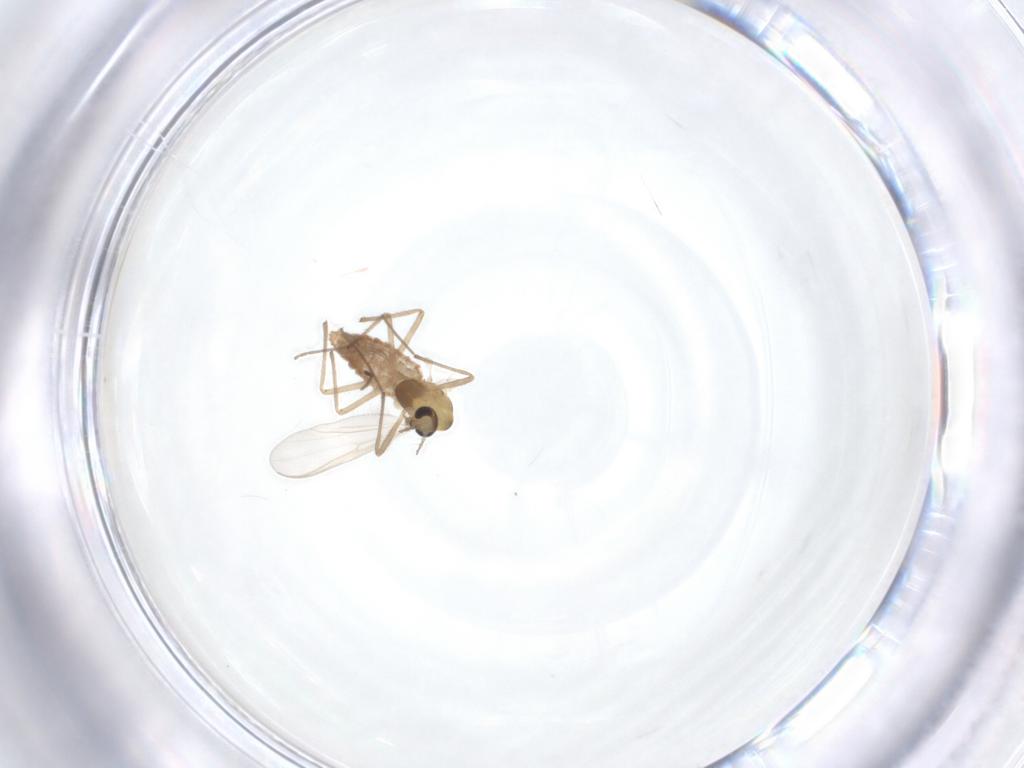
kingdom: Animalia
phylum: Arthropoda
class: Insecta
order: Diptera
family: Chironomidae
